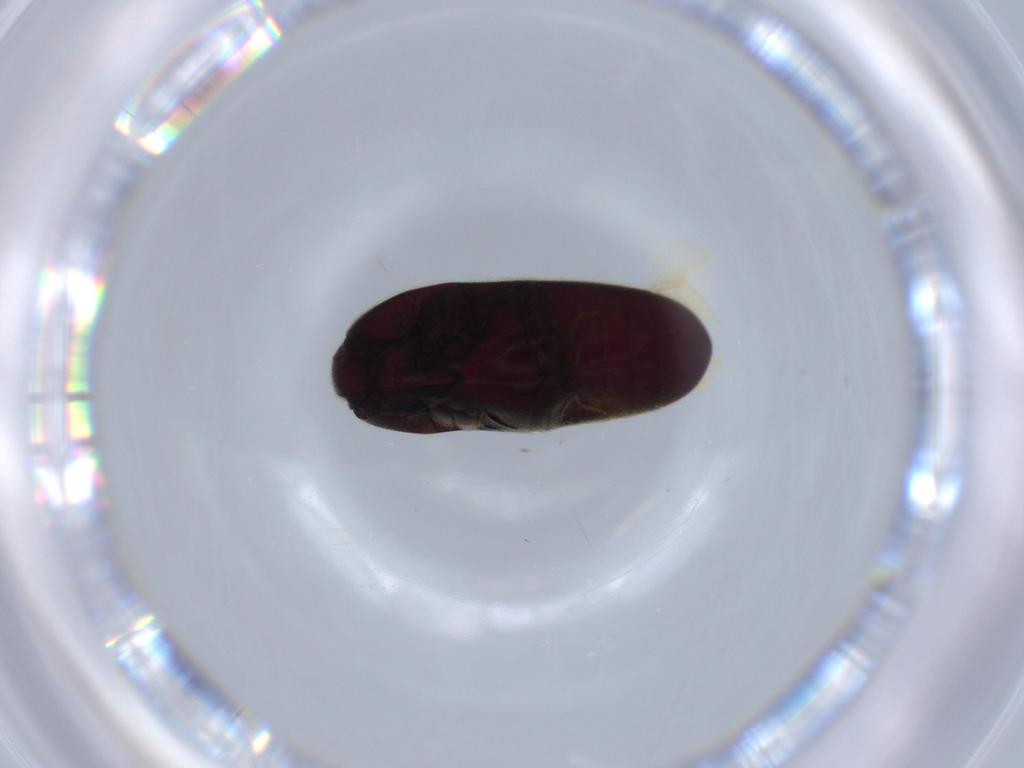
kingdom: Animalia
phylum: Arthropoda
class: Insecta
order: Coleoptera
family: Throscidae
